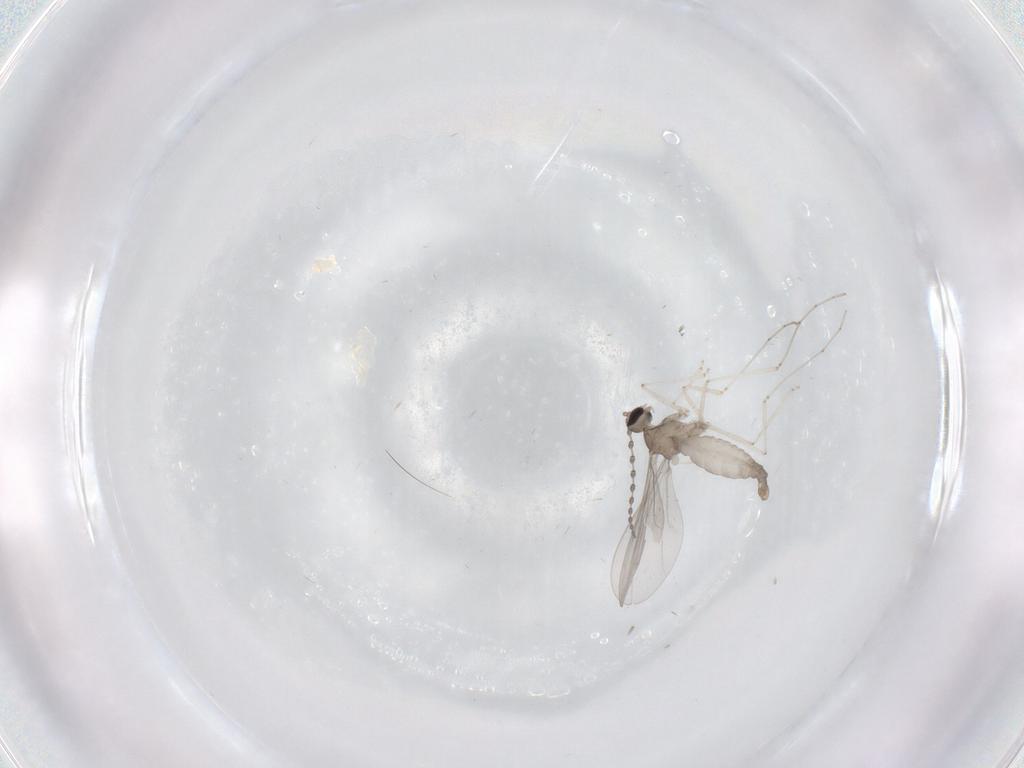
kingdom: Animalia
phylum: Arthropoda
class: Insecta
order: Diptera
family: Cecidomyiidae
